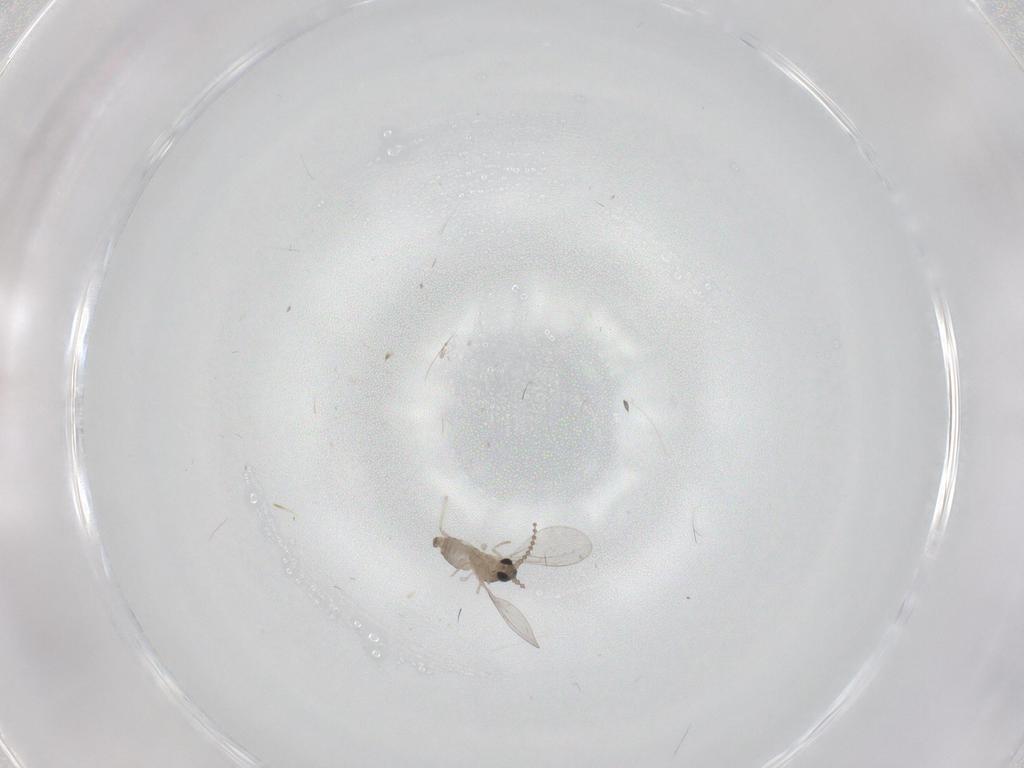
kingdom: Animalia
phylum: Arthropoda
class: Insecta
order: Diptera
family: Cecidomyiidae
